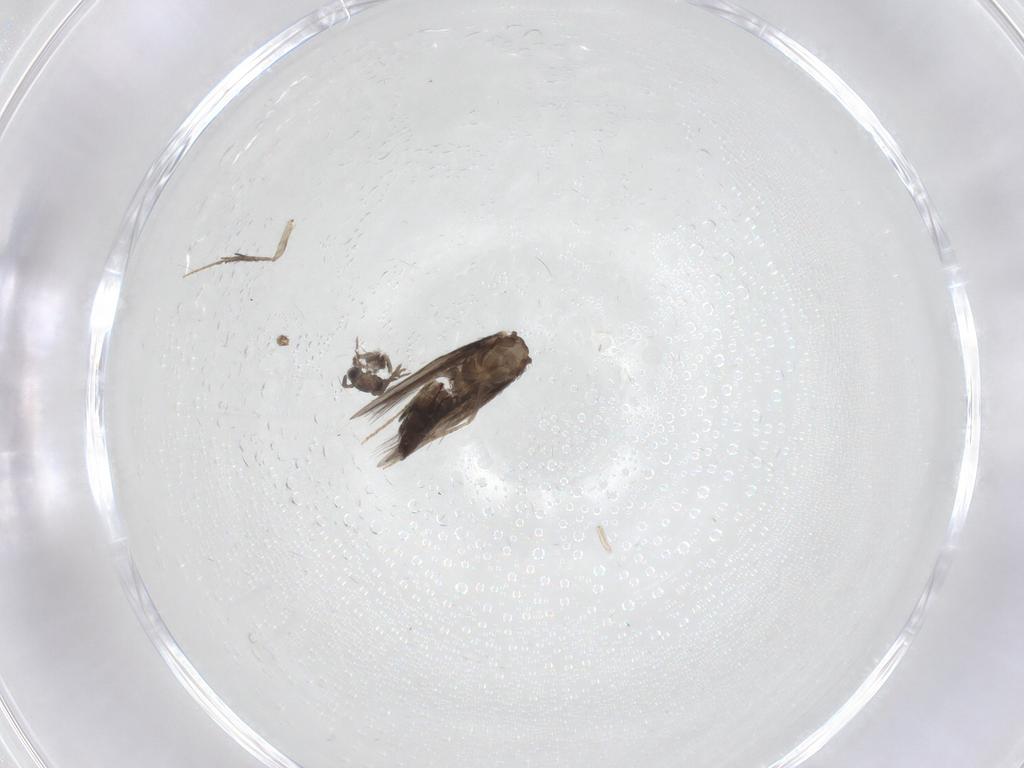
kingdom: Animalia
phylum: Arthropoda
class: Insecta
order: Trichoptera
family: Hydroptilidae
